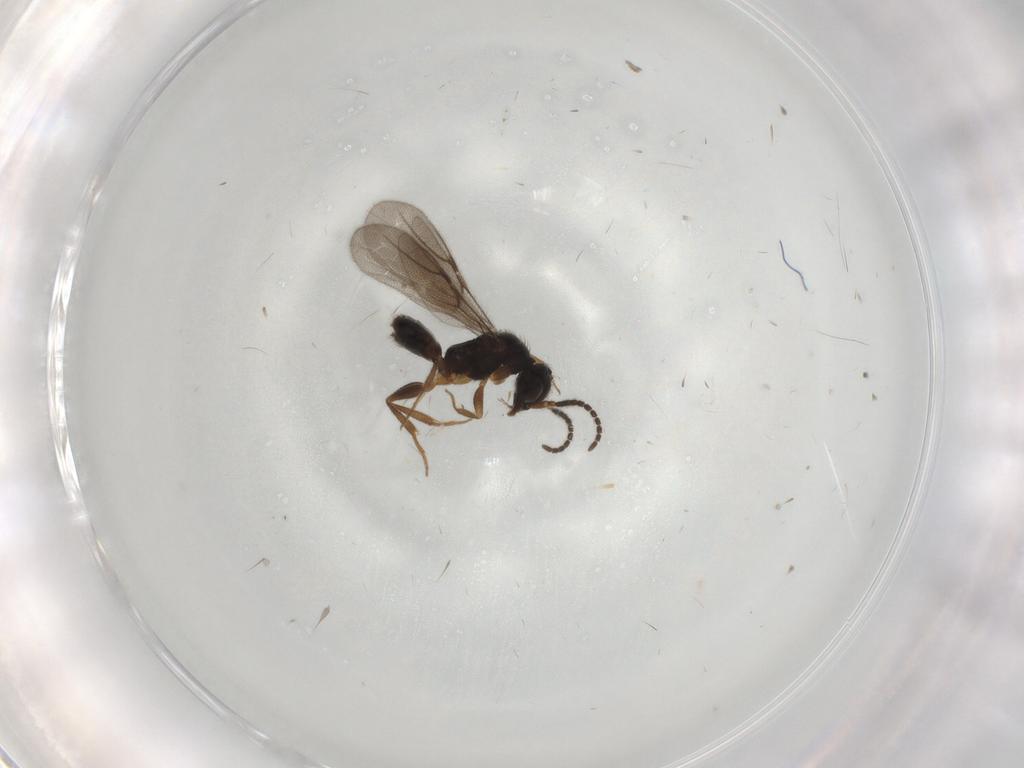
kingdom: Animalia
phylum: Arthropoda
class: Insecta
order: Hymenoptera
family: Bethylidae
